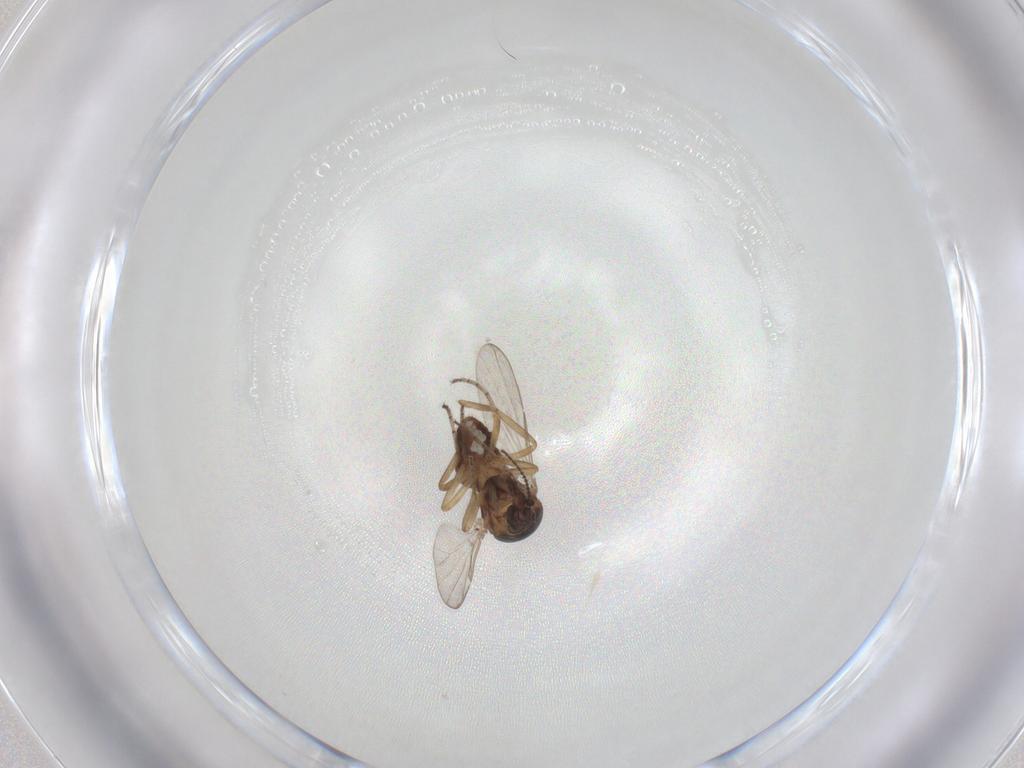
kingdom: Animalia
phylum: Arthropoda
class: Insecta
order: Diptera
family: Ceratopogonidae
